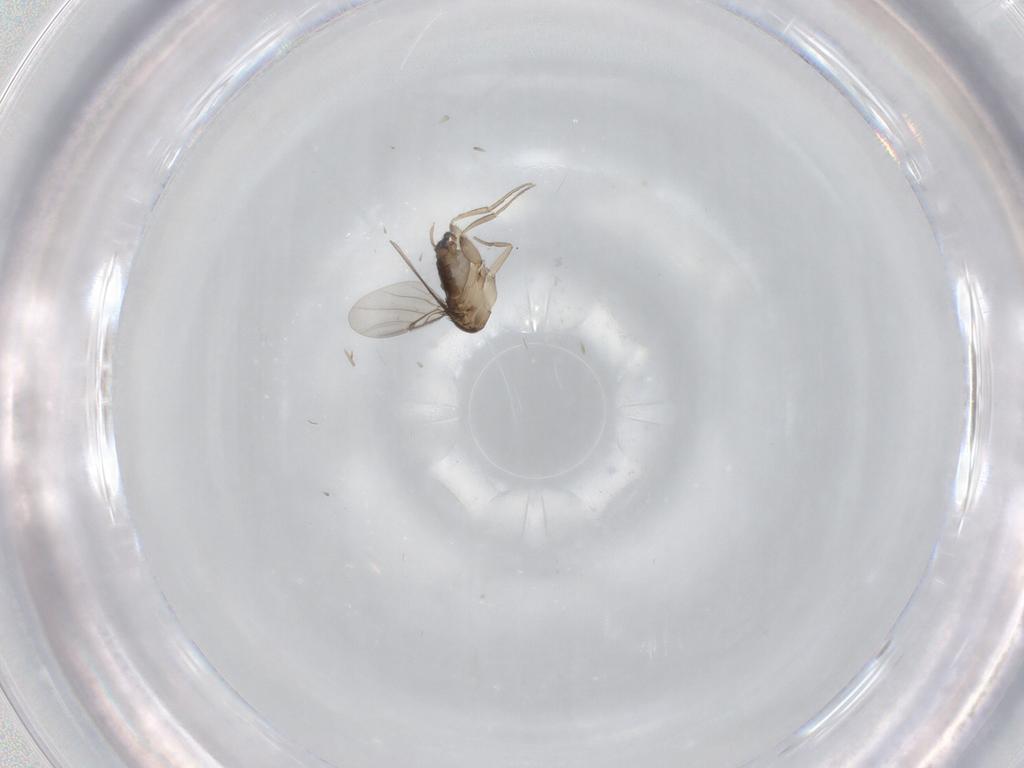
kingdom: Animalia
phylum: Arthropoda
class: Insecta
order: Diptera
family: Phoridae
